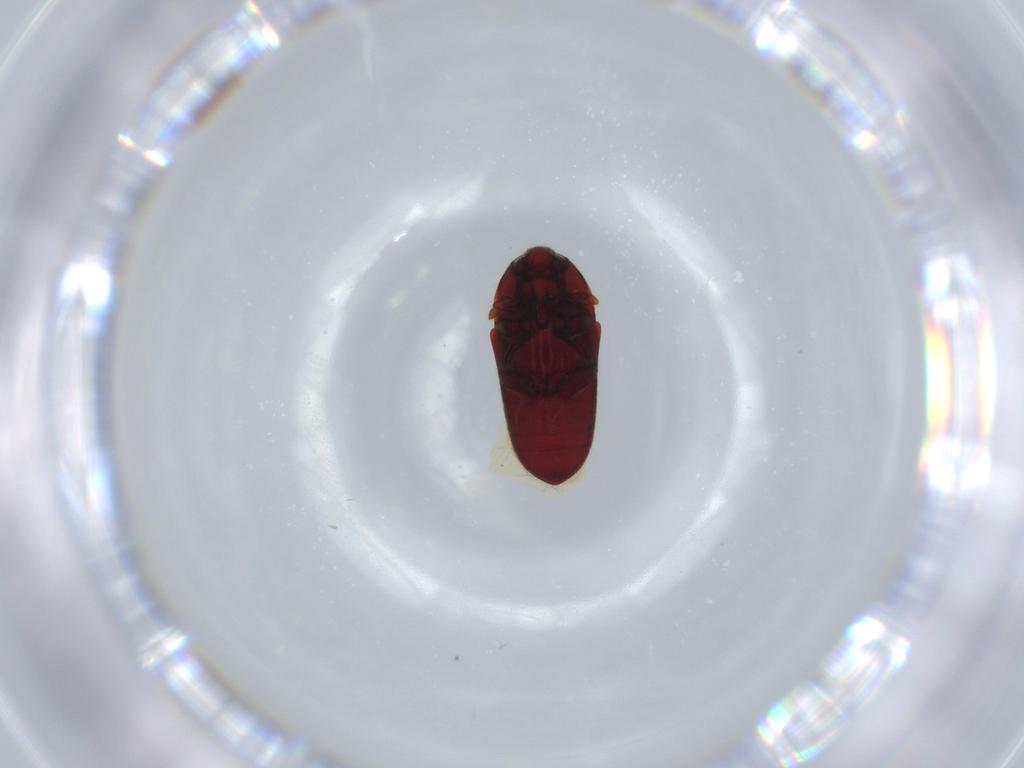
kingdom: Animalia
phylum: Arthropoda
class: Insecta
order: Coleoptera
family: Throscidae
